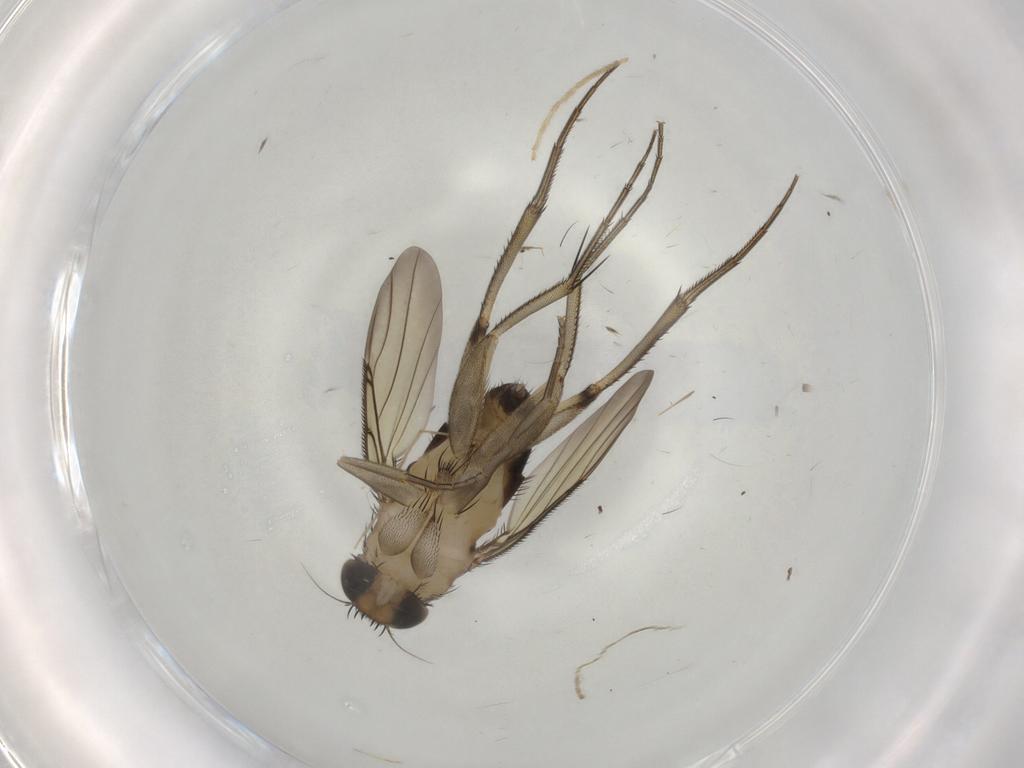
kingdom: Animalia
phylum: Arthropoda
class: Insecta
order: Diptera
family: Phoridae
